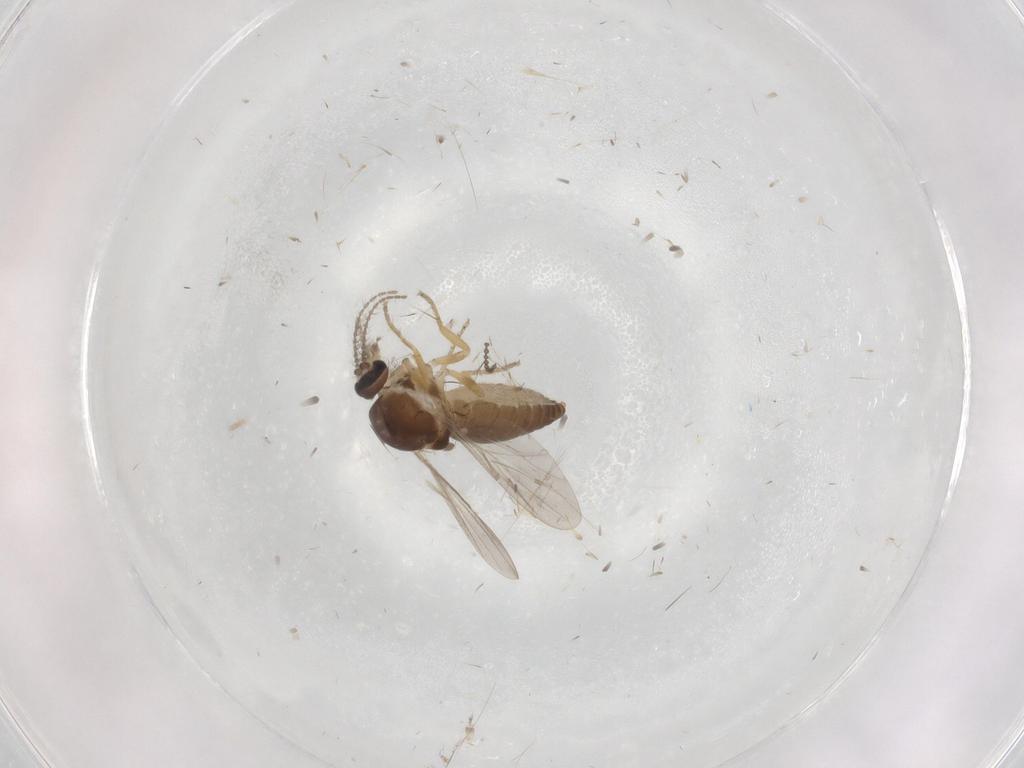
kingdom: Animalia
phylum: Arthropoda
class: Insecta
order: Diptera
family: Ceratopogonidae
